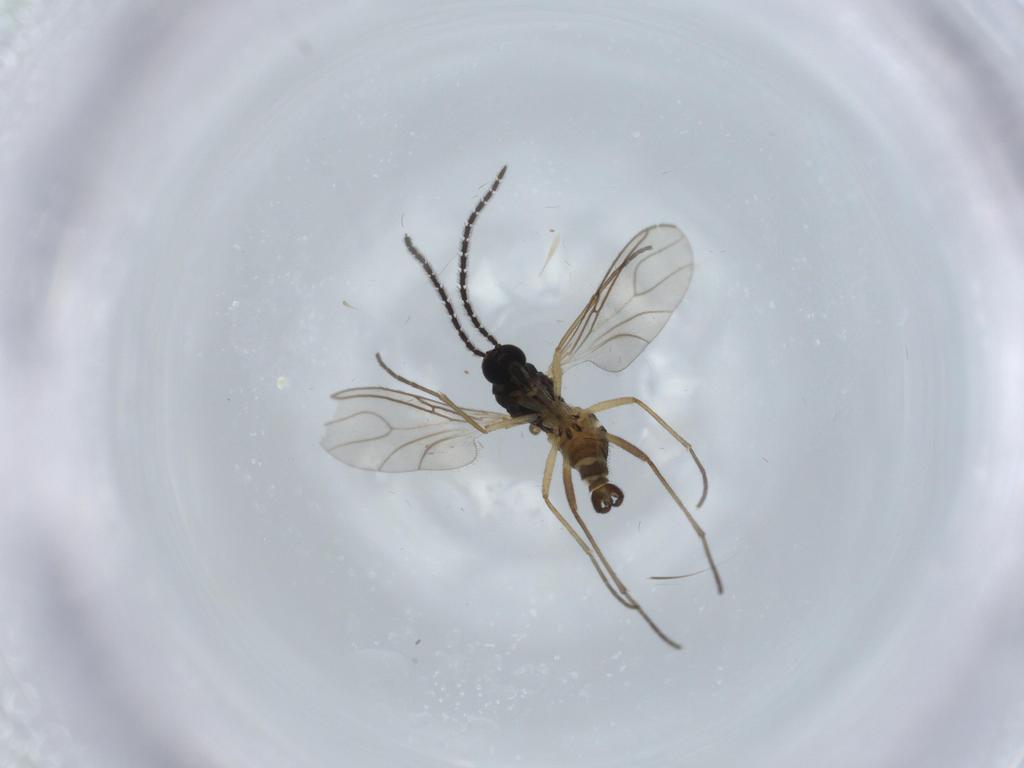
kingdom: Animalia
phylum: Arthropoda
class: Insecta
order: Diptera
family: Sciaridae
